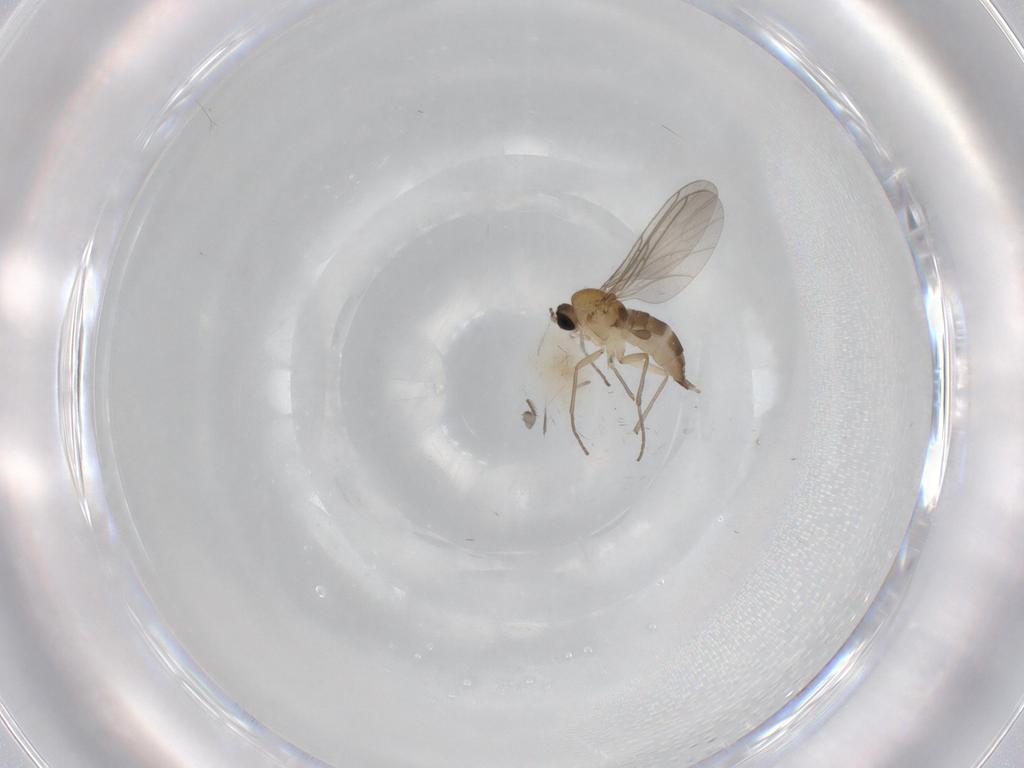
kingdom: Animalia
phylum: Arthropoda
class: Insecta
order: Diptera
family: Sciaridae
